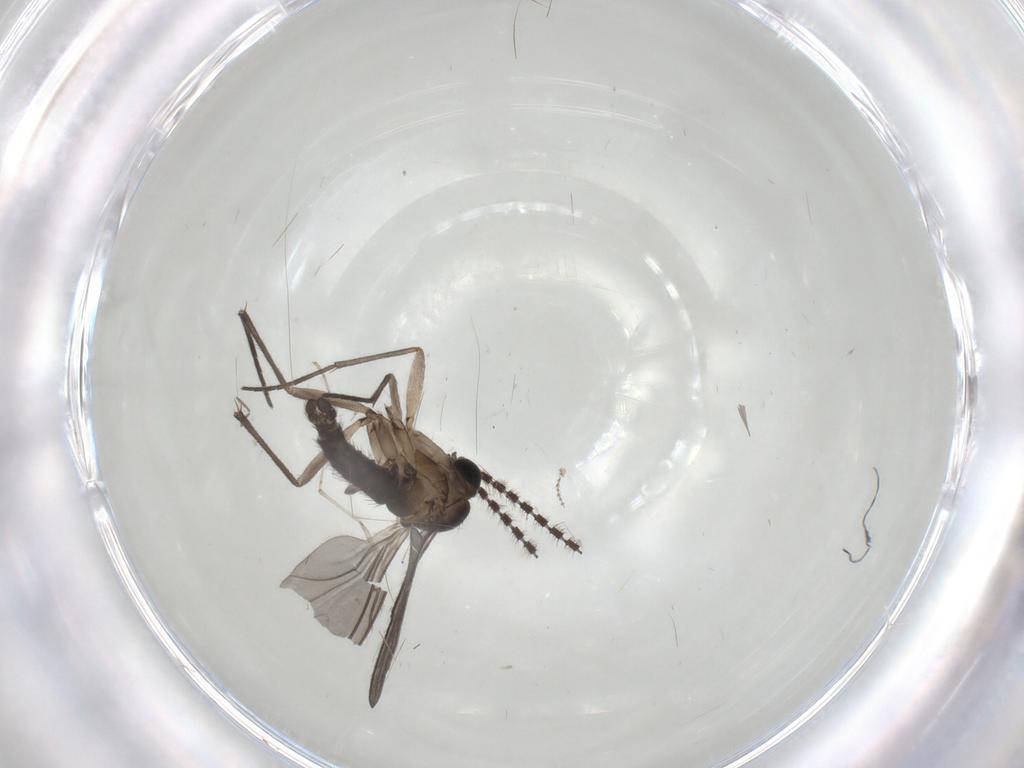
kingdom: Animalia
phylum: Arthropoda
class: Insecta
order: Diptera
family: Sciaridae
